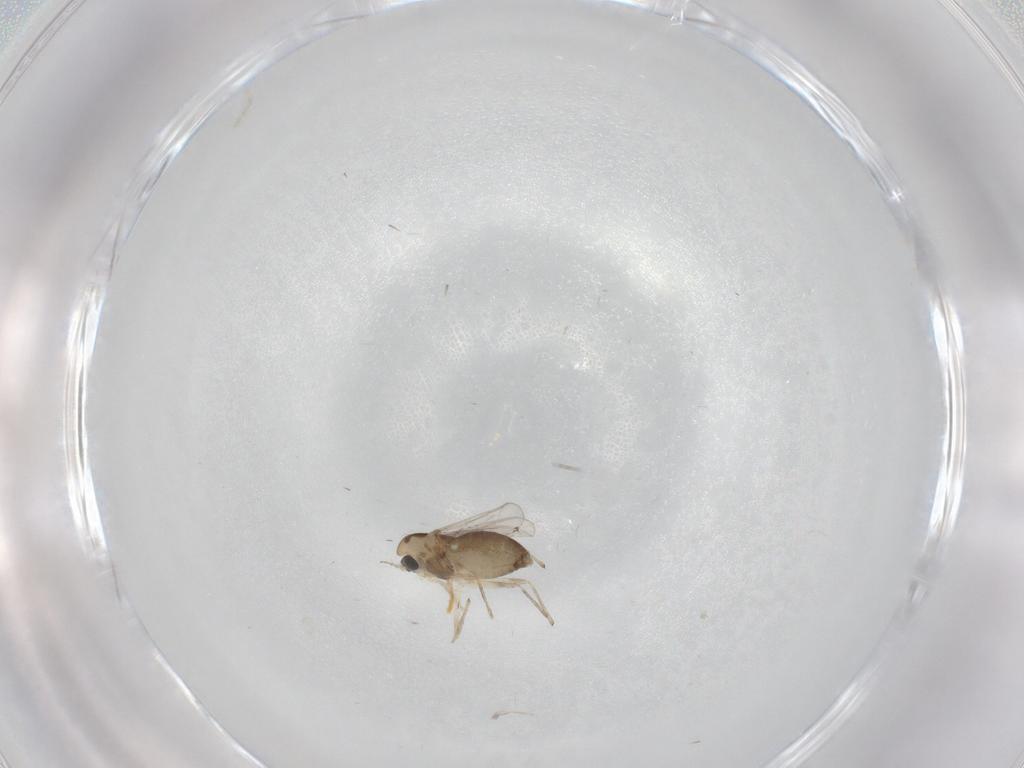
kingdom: Animalia
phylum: Arthropoda
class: Insecta
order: Diptera
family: Chironomidae
